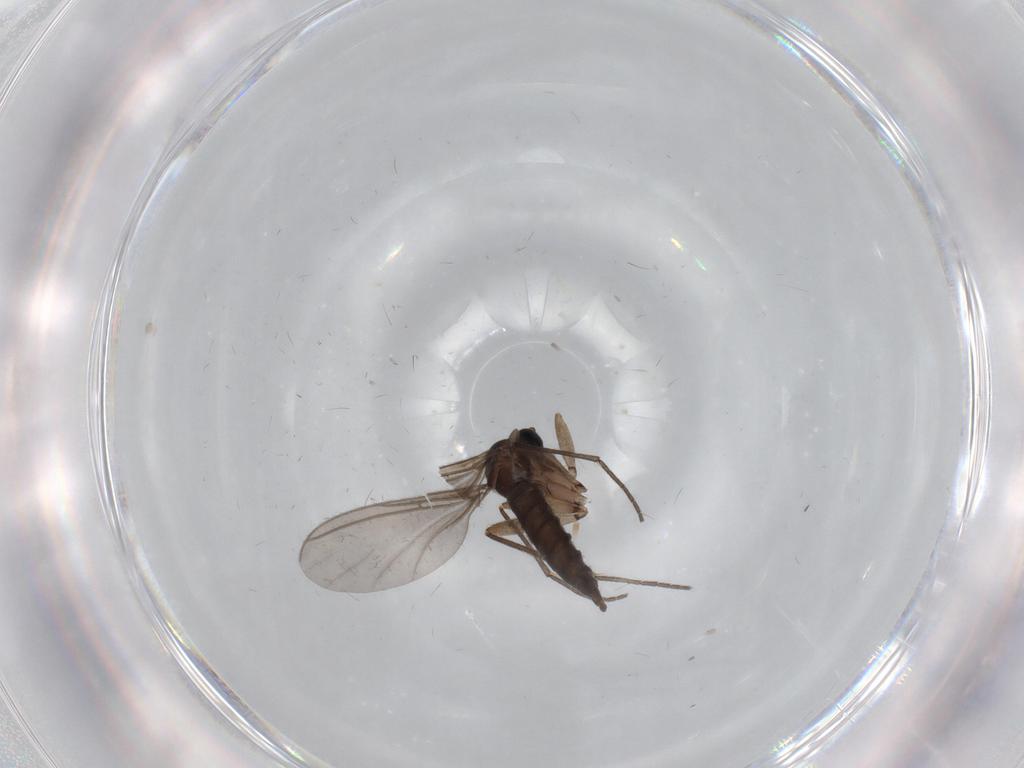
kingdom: Animalia
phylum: Arthropoda
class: Insecta
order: Diptera
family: Sciaridae
